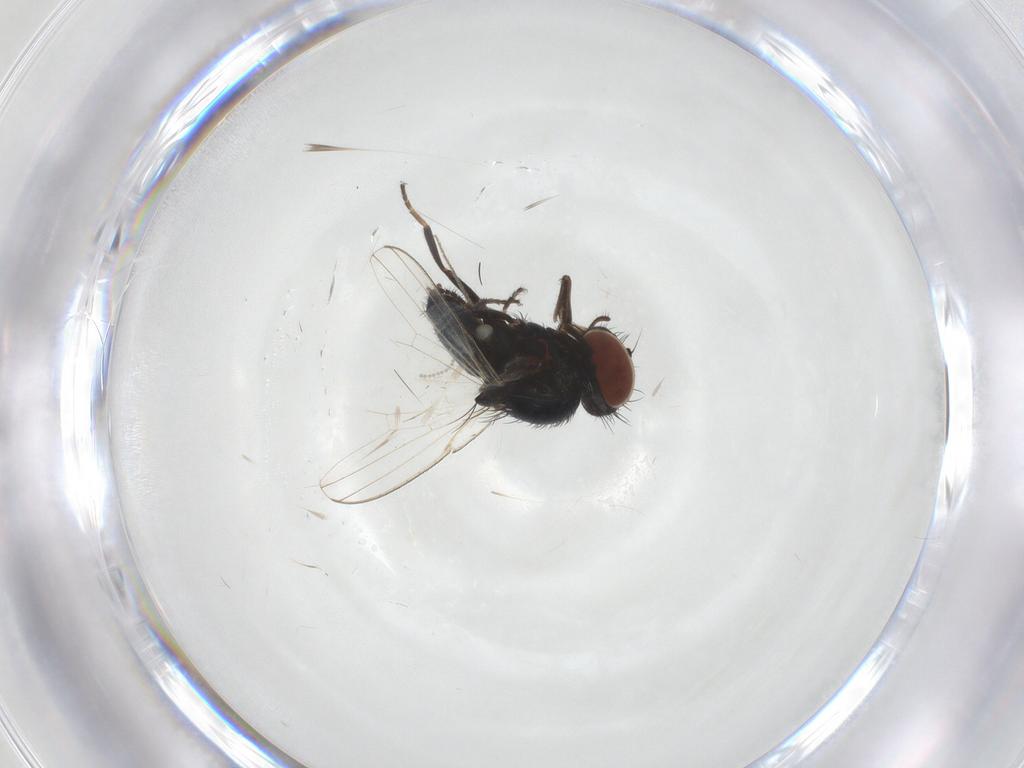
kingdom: Animalia
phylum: Arthropoda
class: Insecta
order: Diptera
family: Milichiidae
